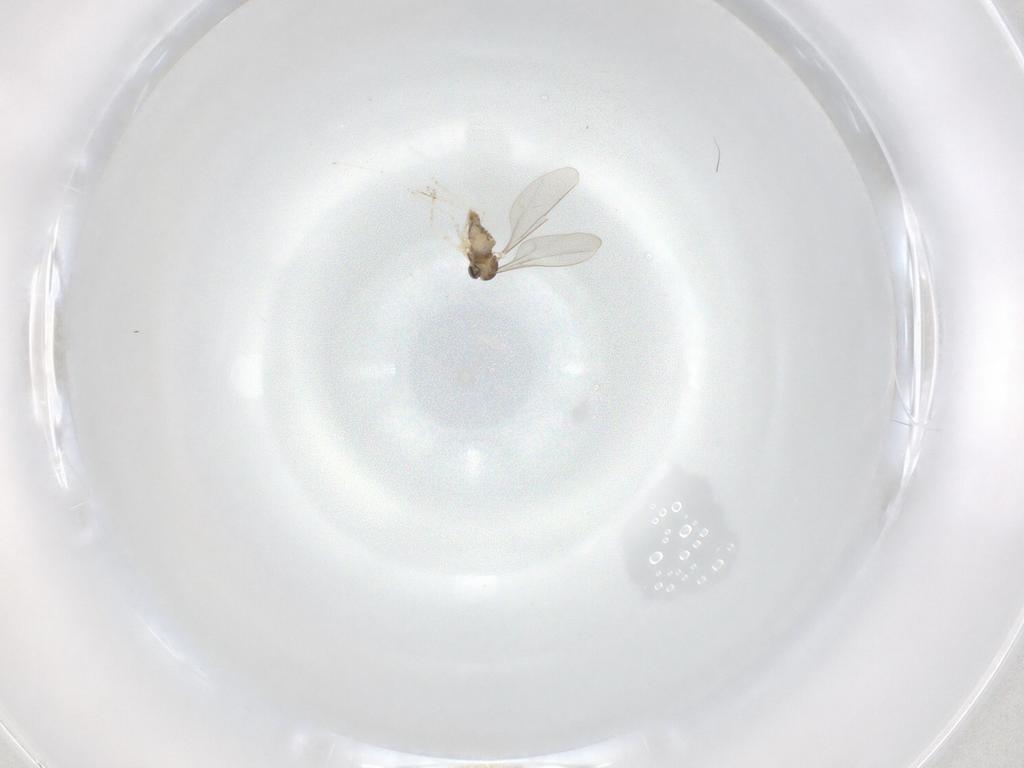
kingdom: Animalia
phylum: Arthropoda
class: Insecta
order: Diptera
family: Cecidomyiidae
